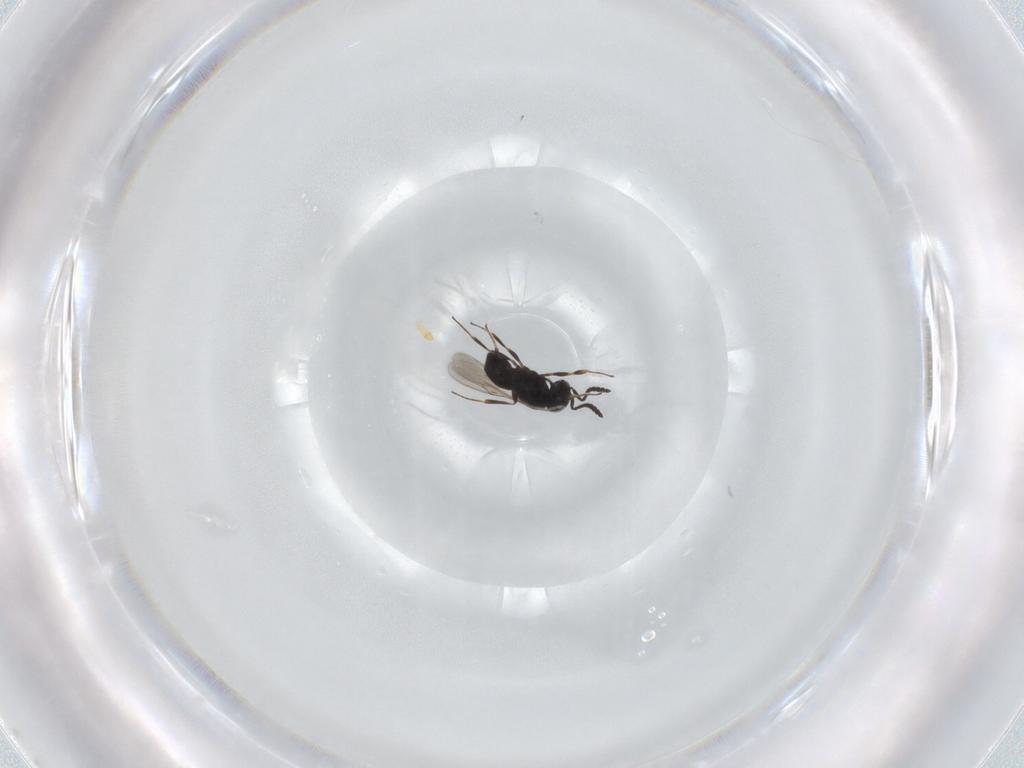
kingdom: Animalia
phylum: Arthropoda
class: Insecta
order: Hymenoptera
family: Scelionidae
